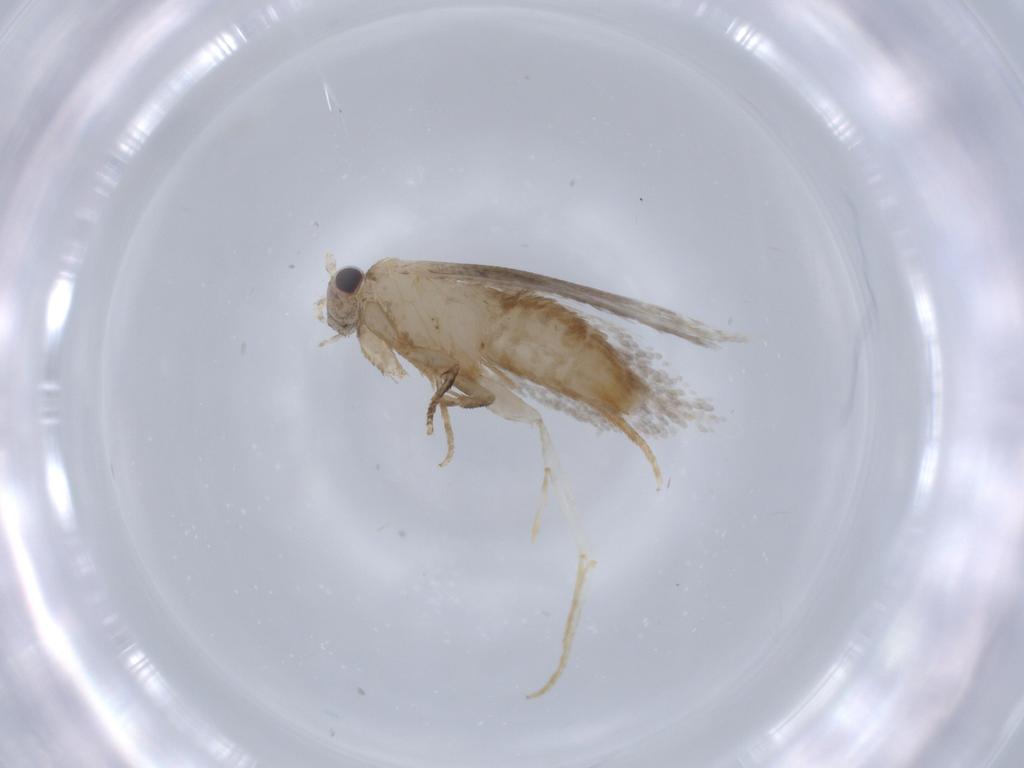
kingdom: Animalia
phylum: Arthropoda
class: Insecta
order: Lepidoptera
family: Tineidae
